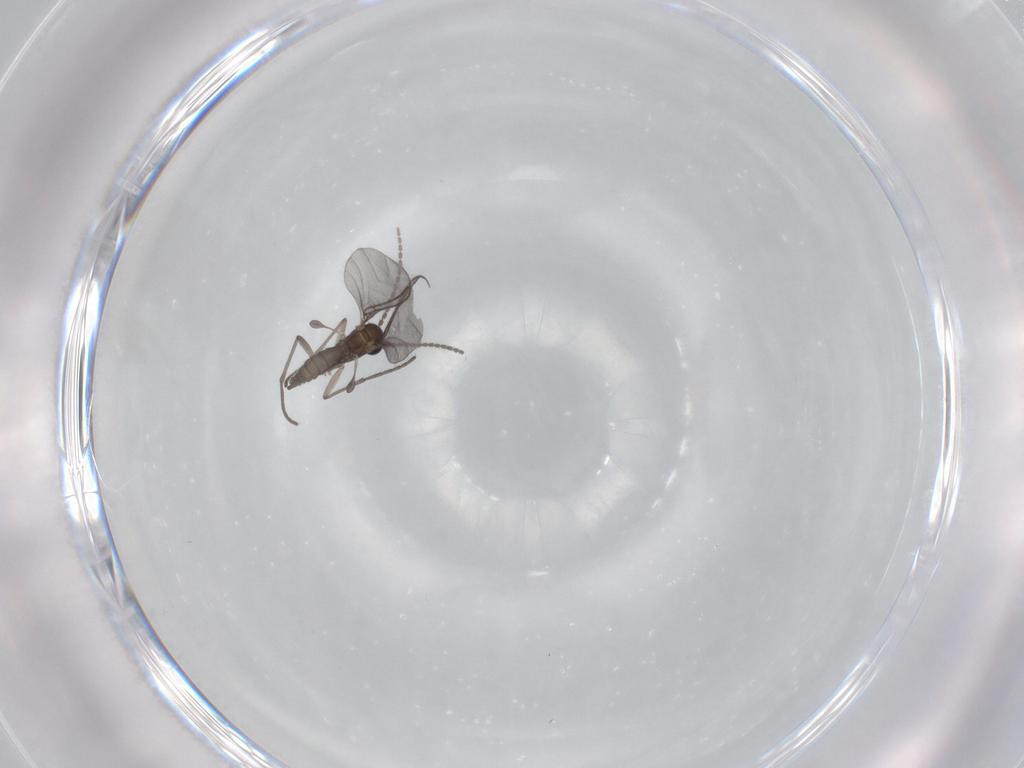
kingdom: Animalia
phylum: Arthropoda
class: Insecta
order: Diptera
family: Sciaridae
